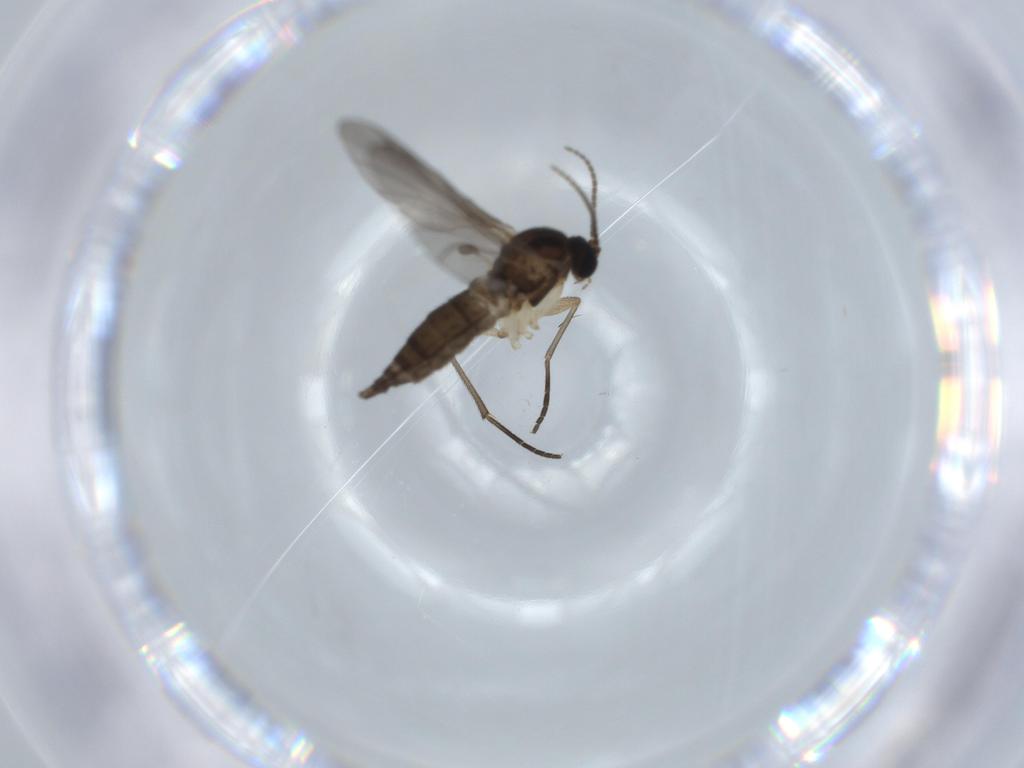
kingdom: Animalia
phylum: Arthropoda
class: Insecta
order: Diptera
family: Sciaridae
